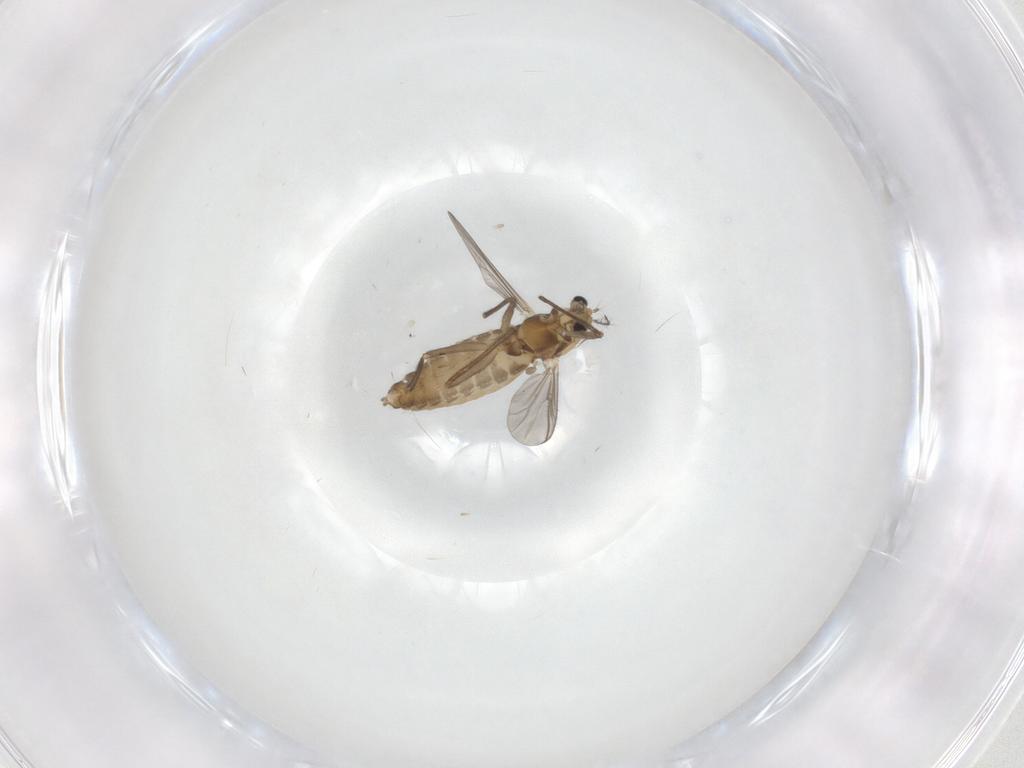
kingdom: Animalia
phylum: Arthropoda
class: Insecta
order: Diptera
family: Chironomidae
